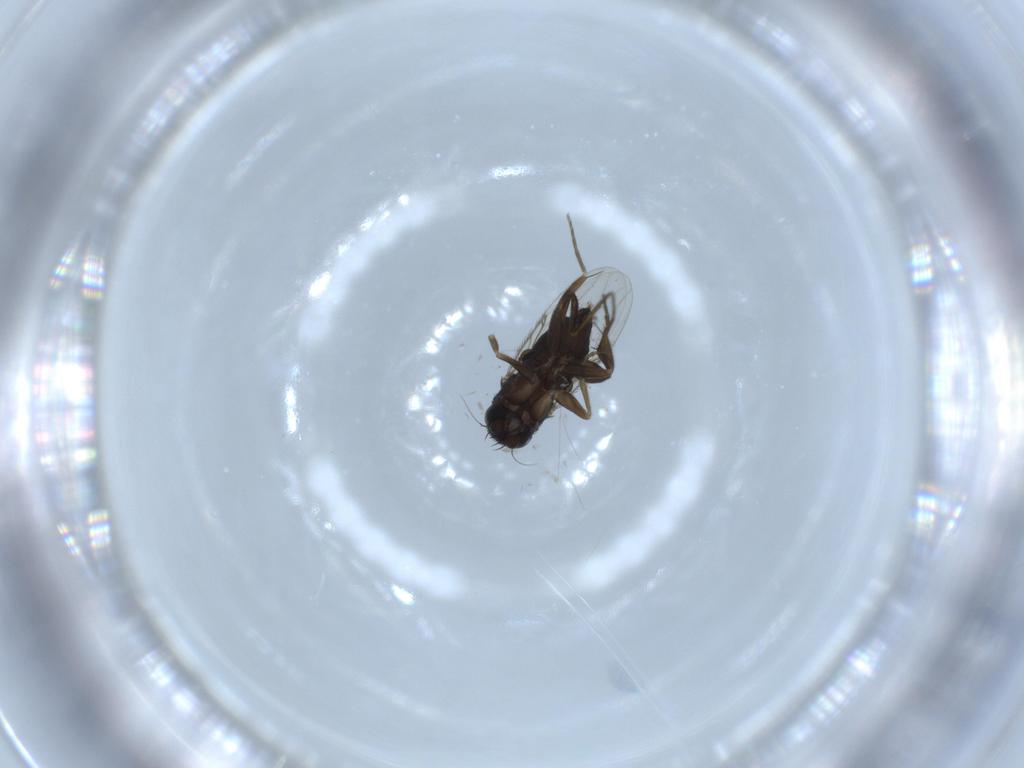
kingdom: Animalia
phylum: Arthropoda
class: Insecta
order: Diptera
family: Phoridae
